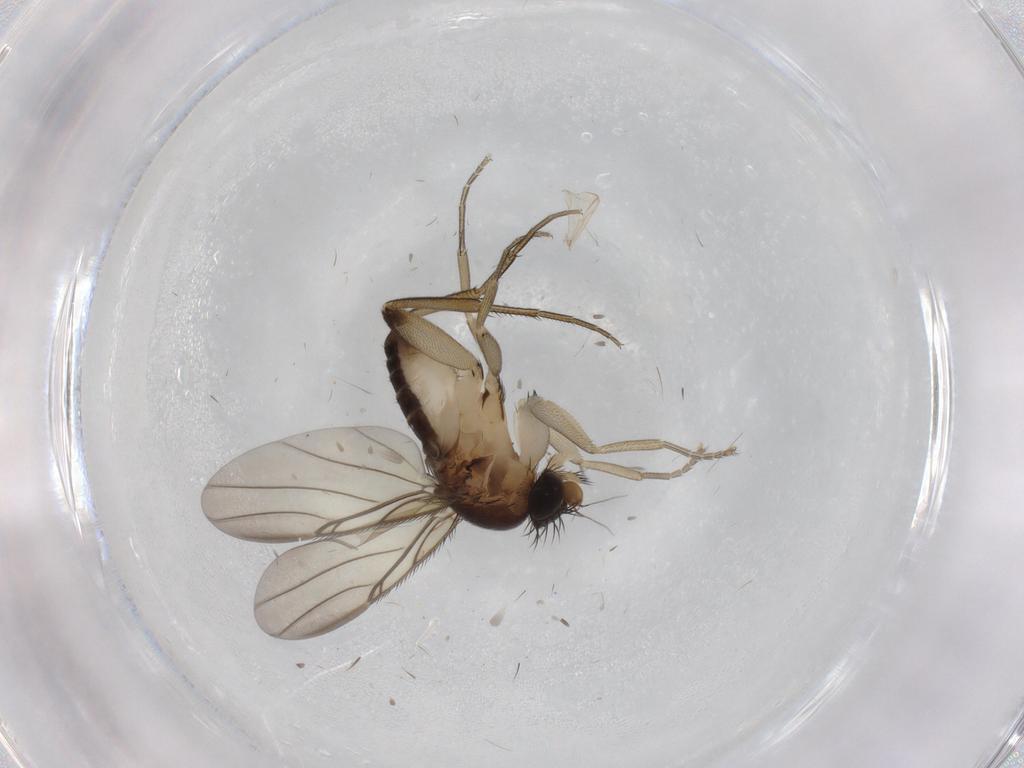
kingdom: Animalia
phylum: Arthropoda
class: Insecta
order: Diptera
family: Phoridae
